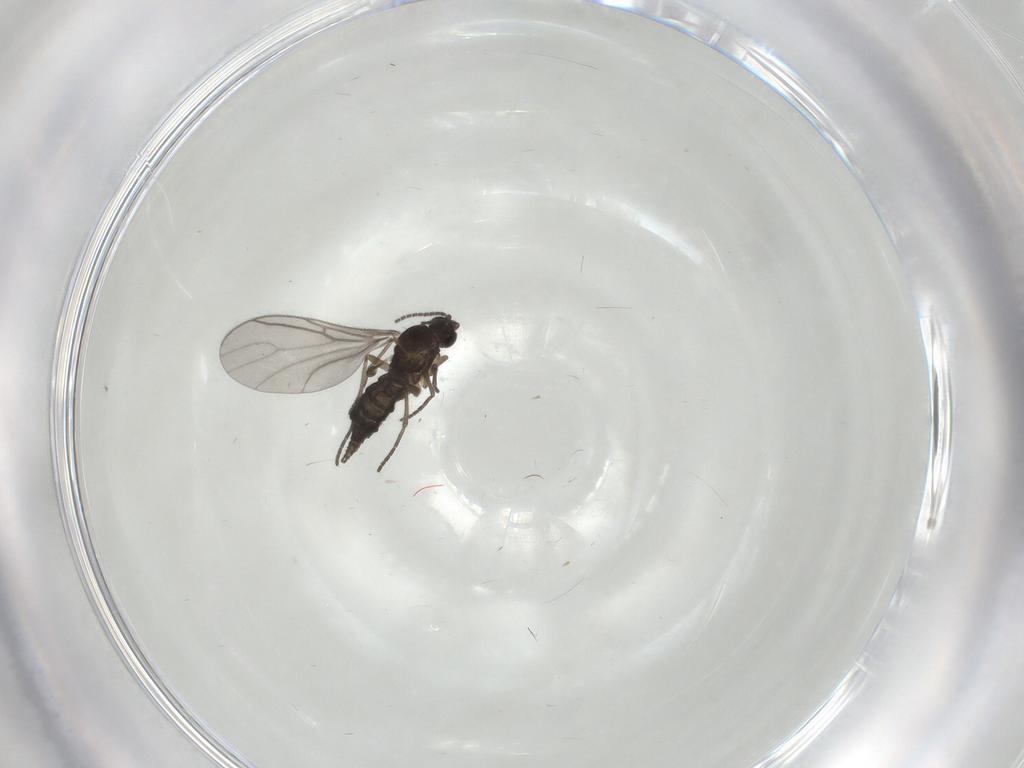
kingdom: Animalia
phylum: Arthropoda
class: Insecta
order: Diptera
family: Sciaridae
